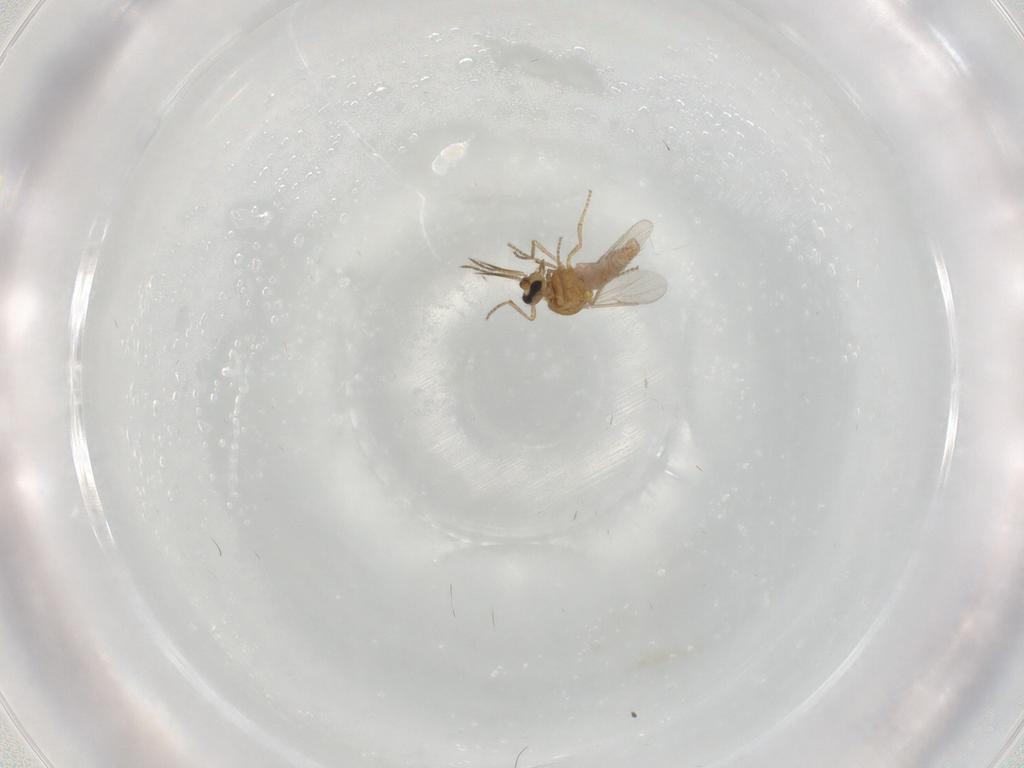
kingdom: Animalia
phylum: Arthropoda
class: Insecta
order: Diptera
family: Ceratopogonidae
